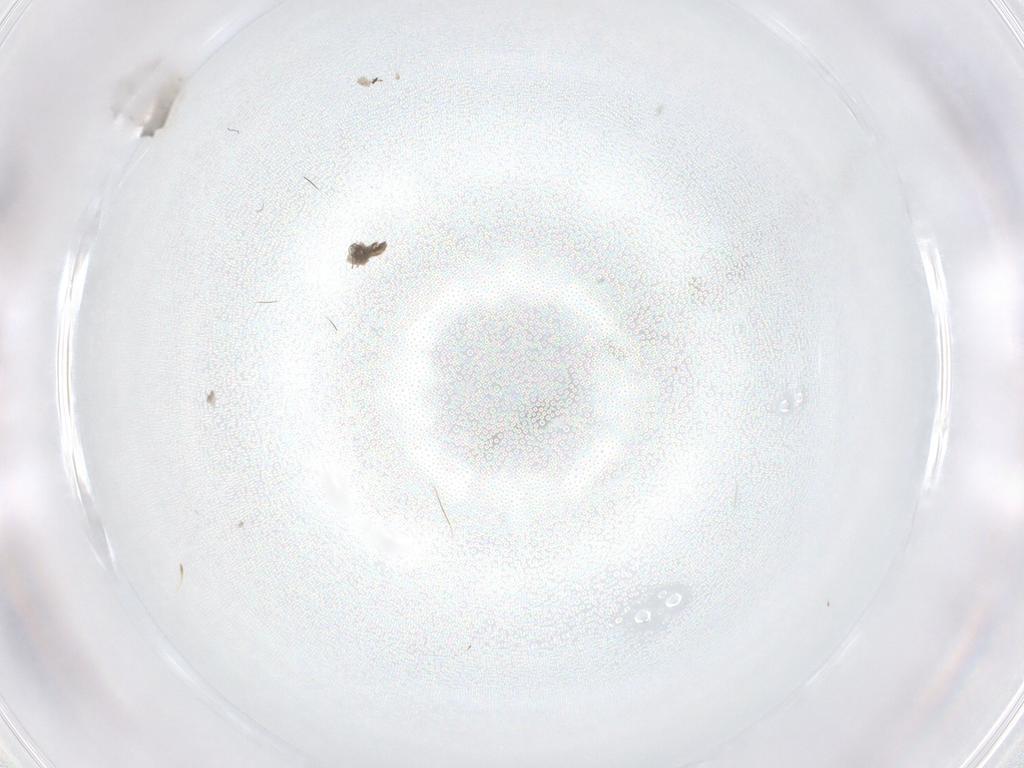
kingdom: Animalia
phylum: Arthropoda
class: Insecta
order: Diptera
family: Cecidomyiidae
